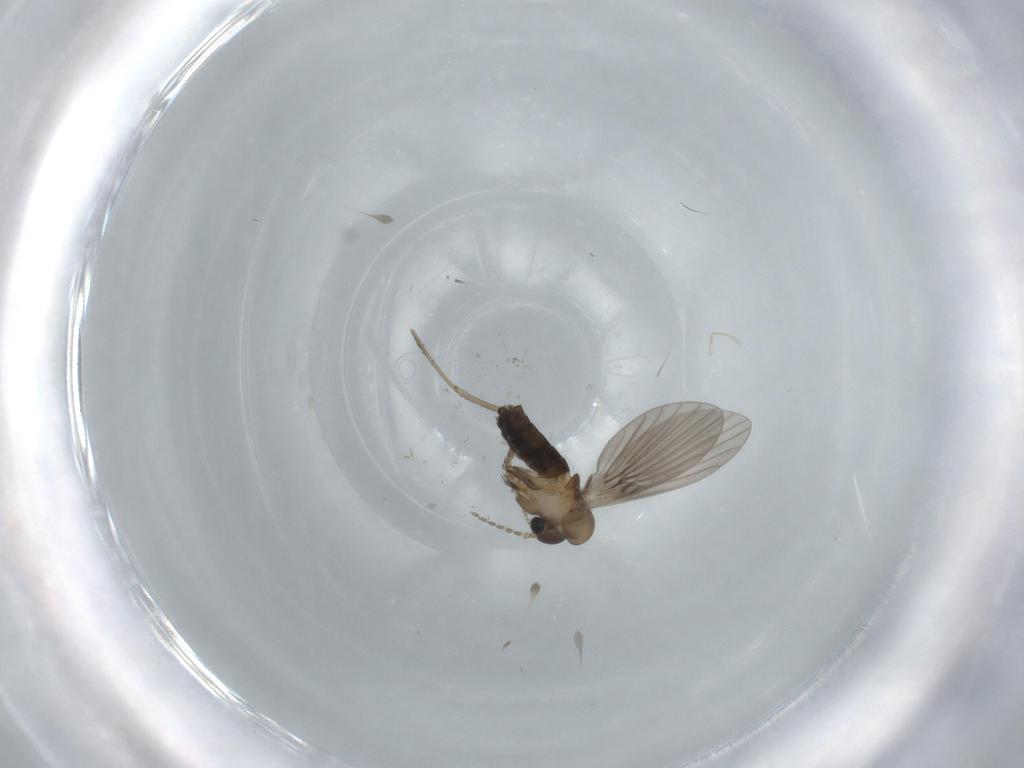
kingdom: Animalia
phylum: Arthropoda
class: Insecta
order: Diptera
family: Psychodidae
